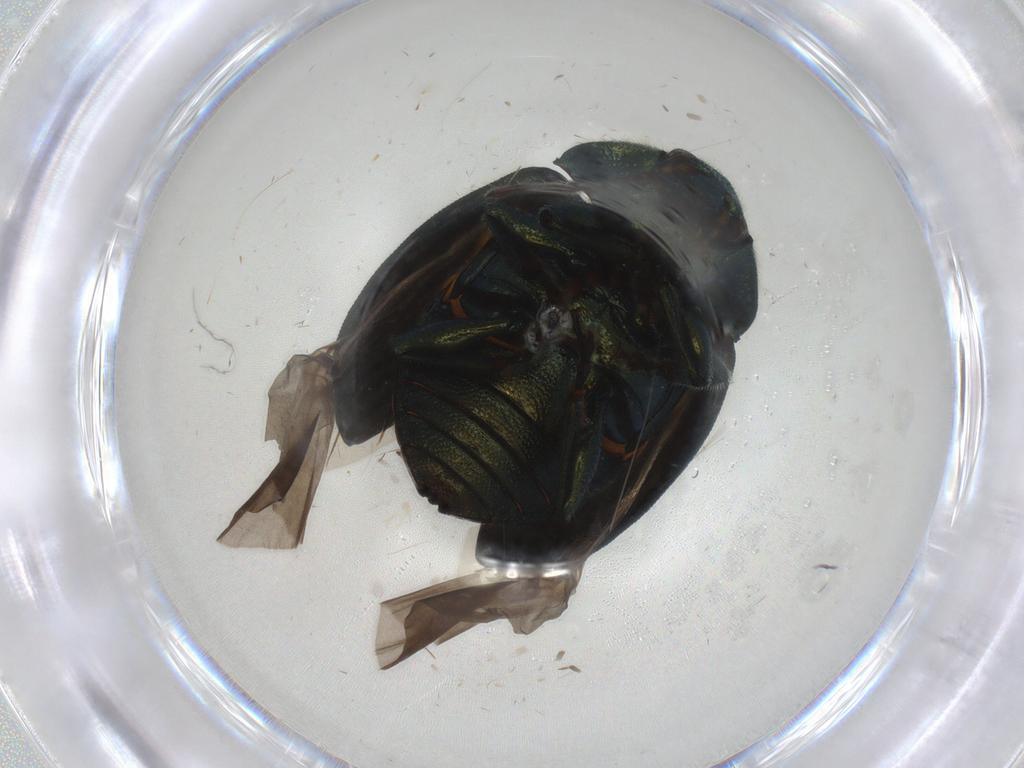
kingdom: Animalia
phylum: Arthropoda
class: Insecta
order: Coleoptera
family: Chrysomelidae
